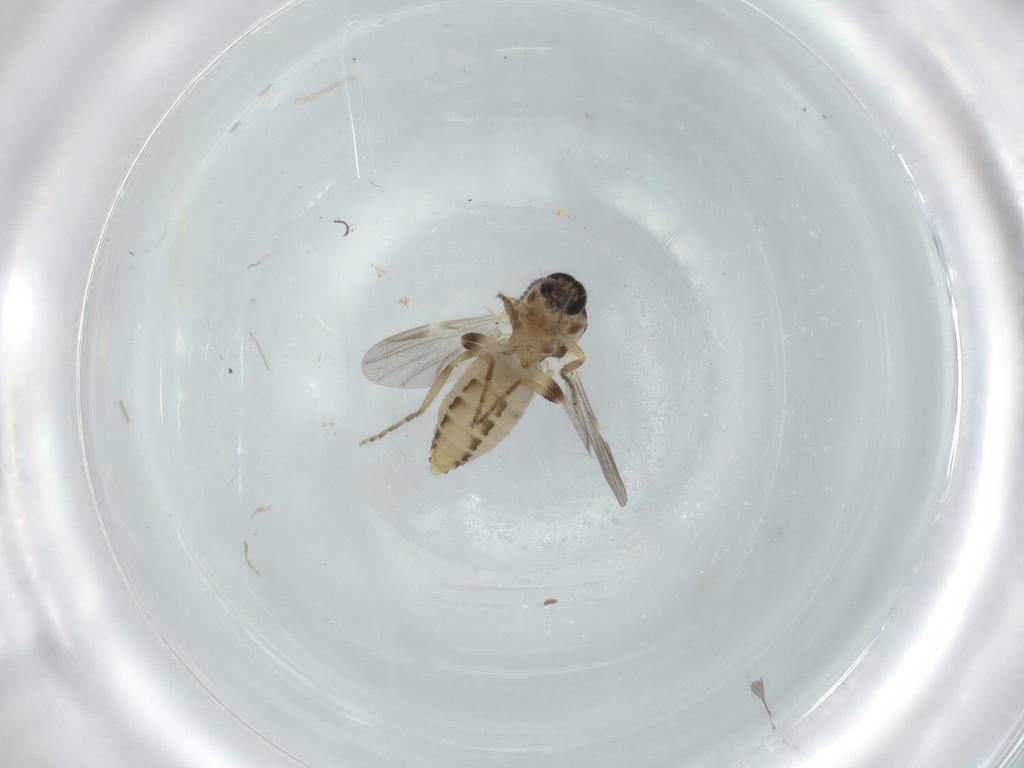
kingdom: Animalia
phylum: Arthropoda
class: Insecta
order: Diptera
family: Ceratopogonidae
